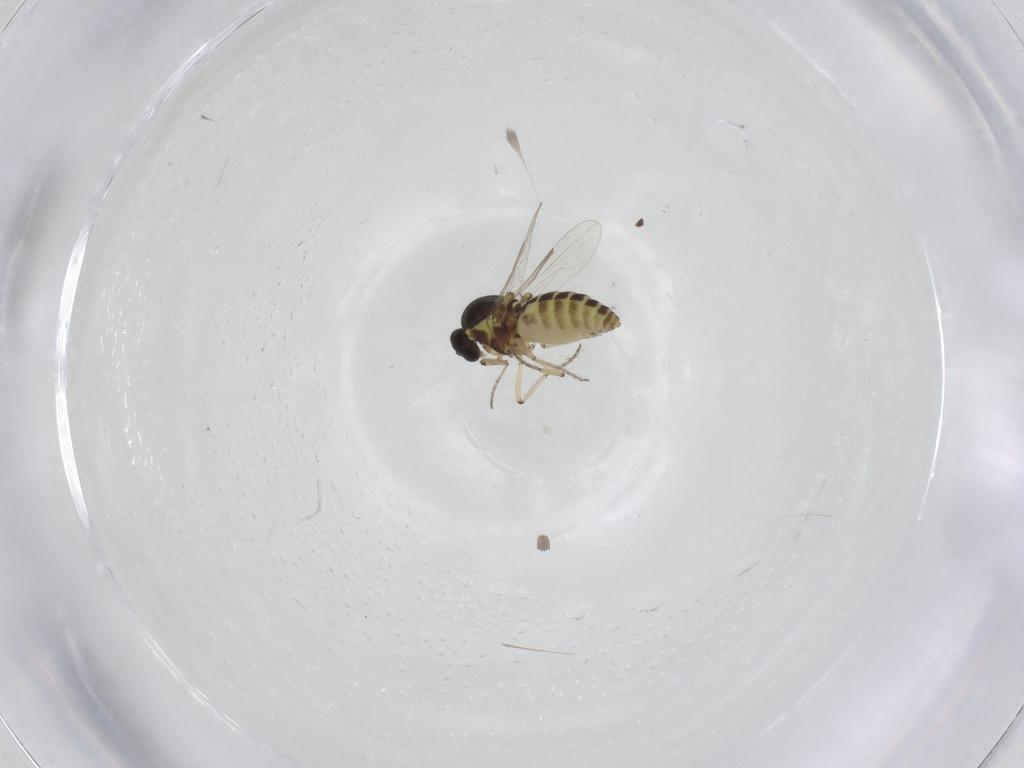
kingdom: Animalia
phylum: Arthropoda
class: Insecta
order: Diptera
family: Ceratopogonidae
